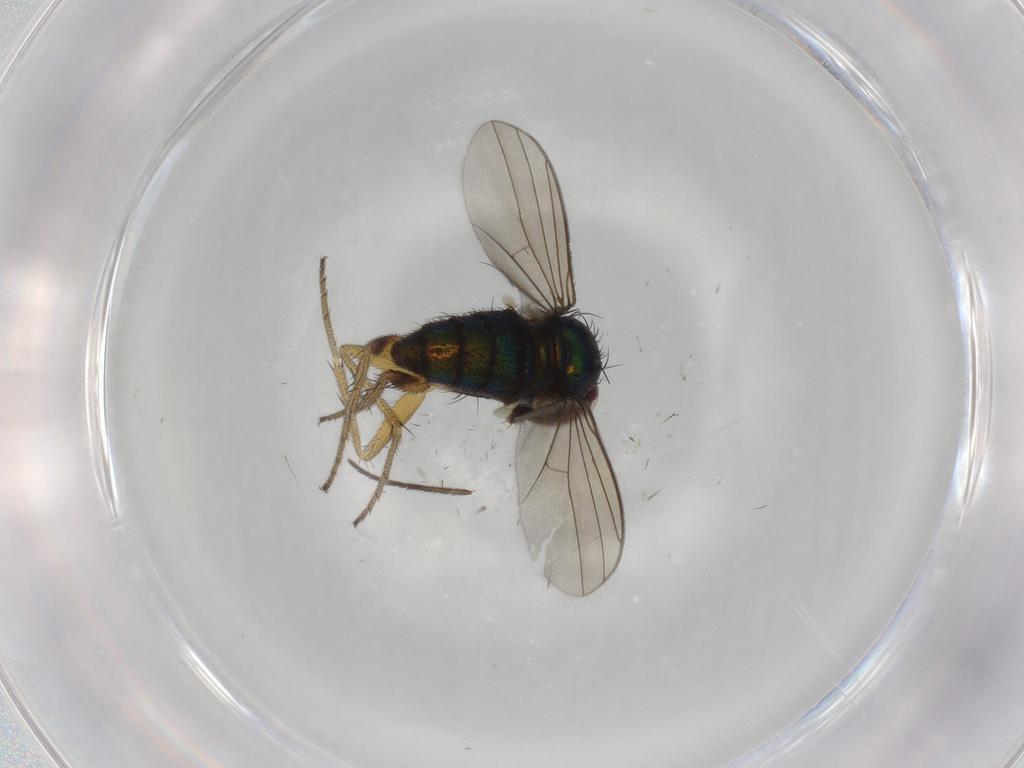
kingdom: Animalia
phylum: Arthropoda
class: Insecta
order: Diptera
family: Dolichopodidae
